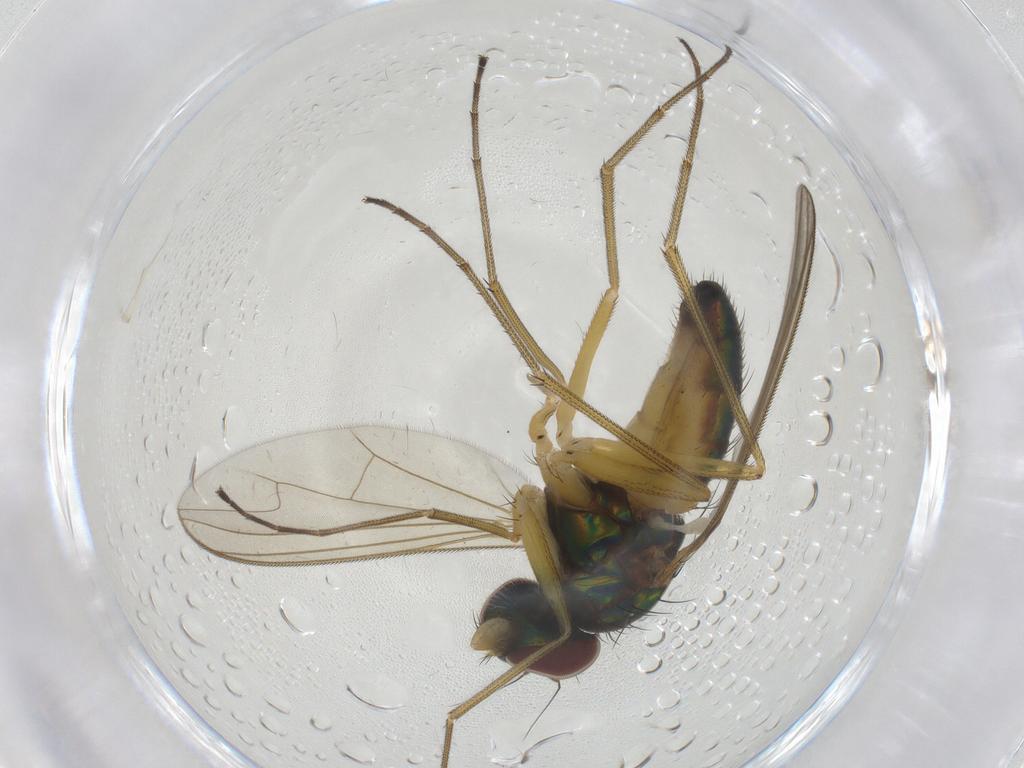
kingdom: Animalia
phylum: Arthropoda
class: Insecta
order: Diptera
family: Dolichopodidae
